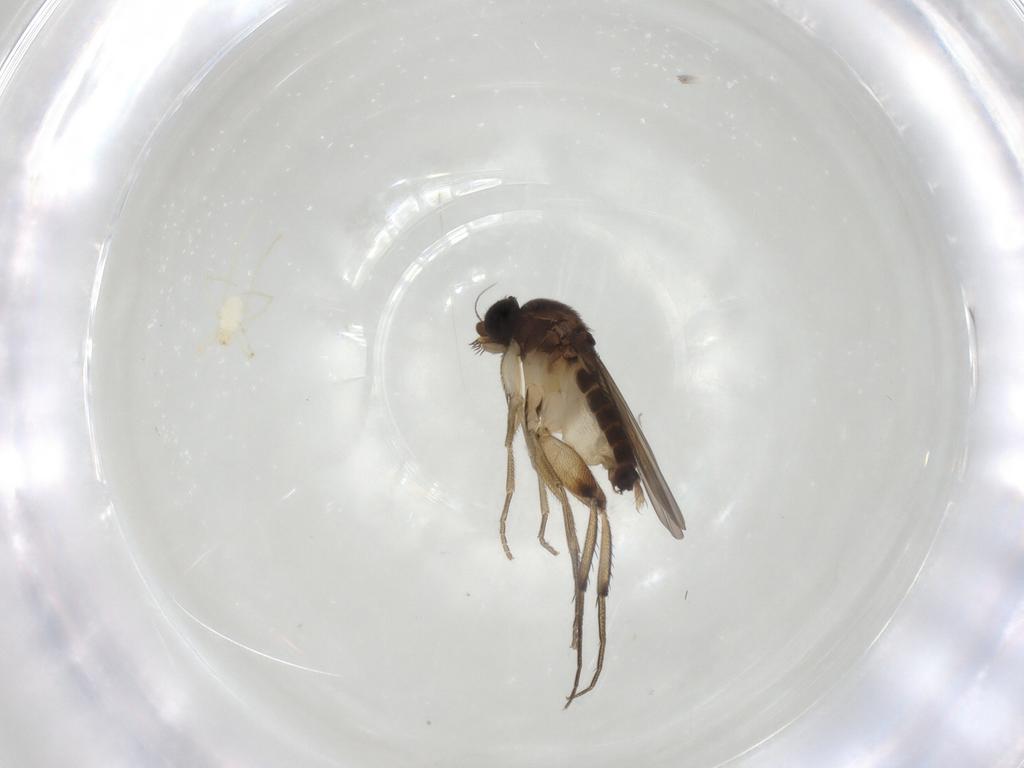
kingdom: Animalia
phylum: Arthropoda
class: Insecta
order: Diptera
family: Phoridae
